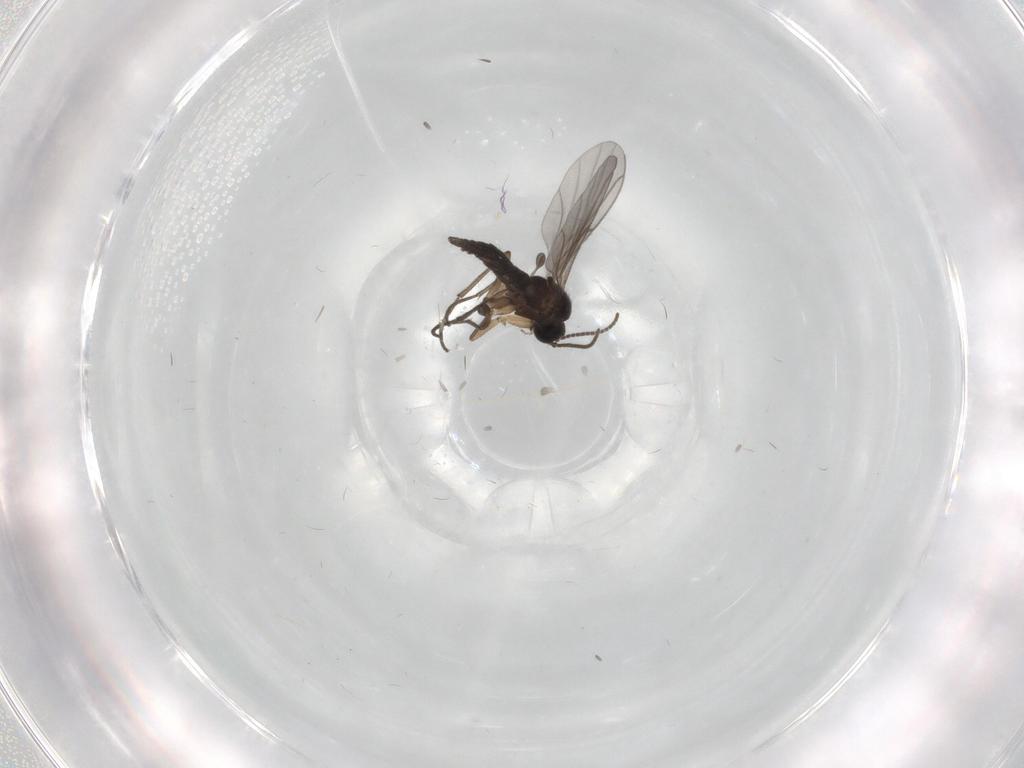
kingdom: Animalia
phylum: Arthropoda
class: Insecta
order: Diptera
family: Sciaridae
